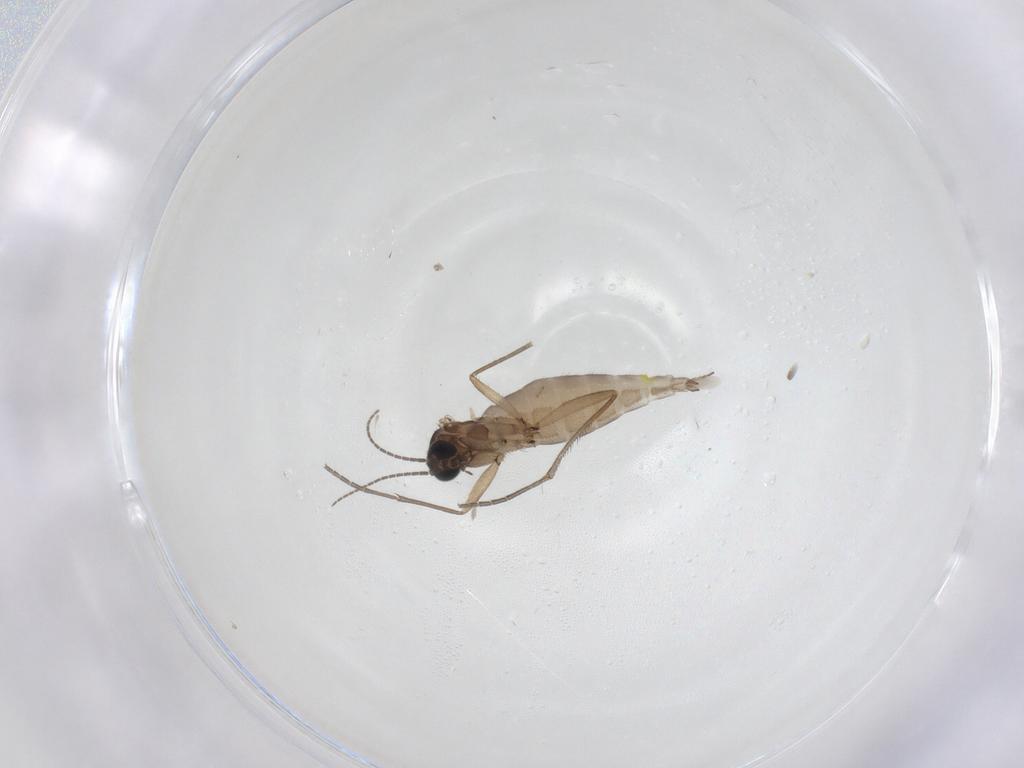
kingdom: Animalia
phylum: Arthropoda
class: Insecta
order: Diptera
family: Sciaridae
